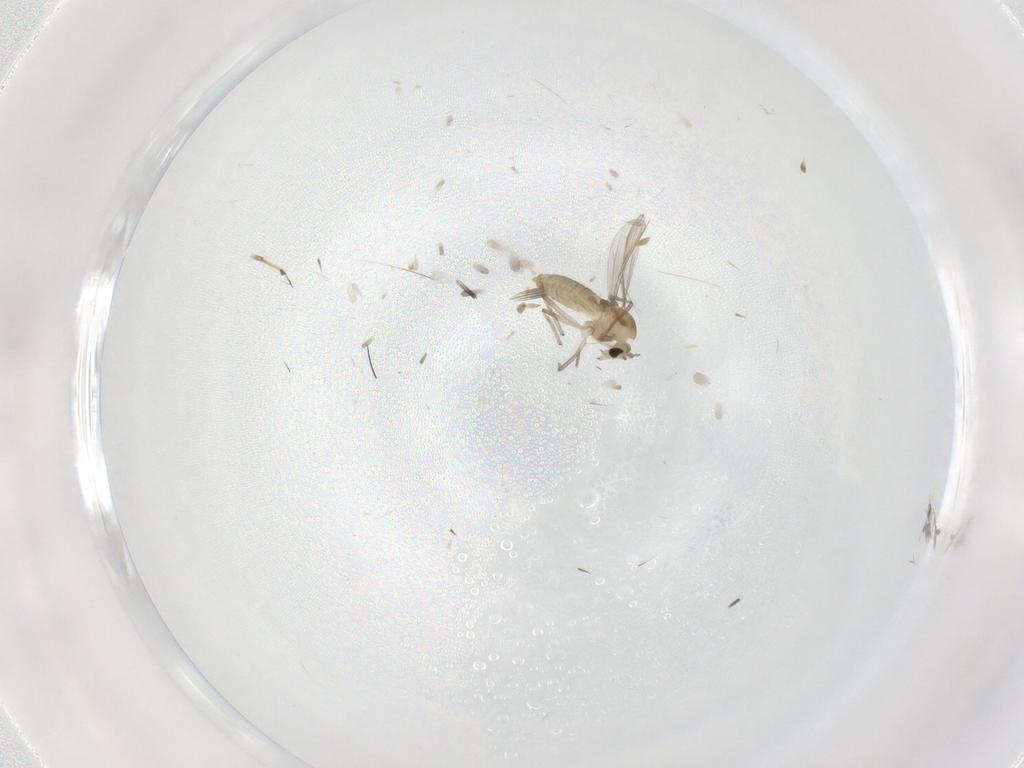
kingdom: Animalia
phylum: Arthropoda
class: Insecta
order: Diptera
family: Chironomidae
